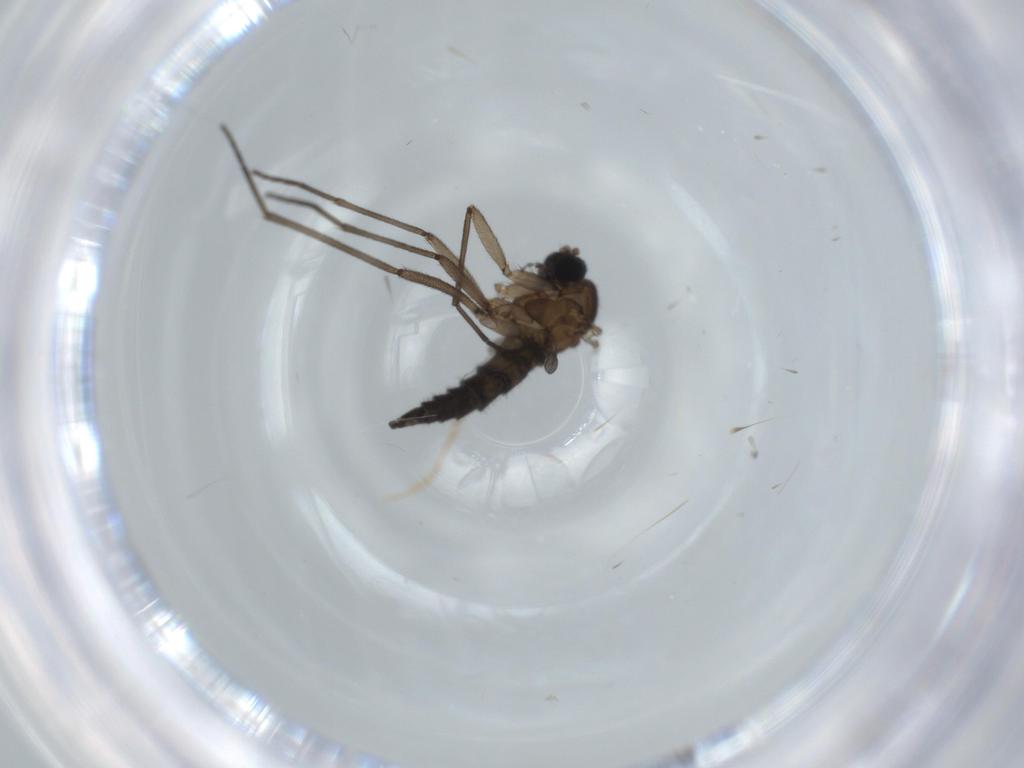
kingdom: Animalia
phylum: Arthropoda
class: Insecta
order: Diptera
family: Sciaridae
